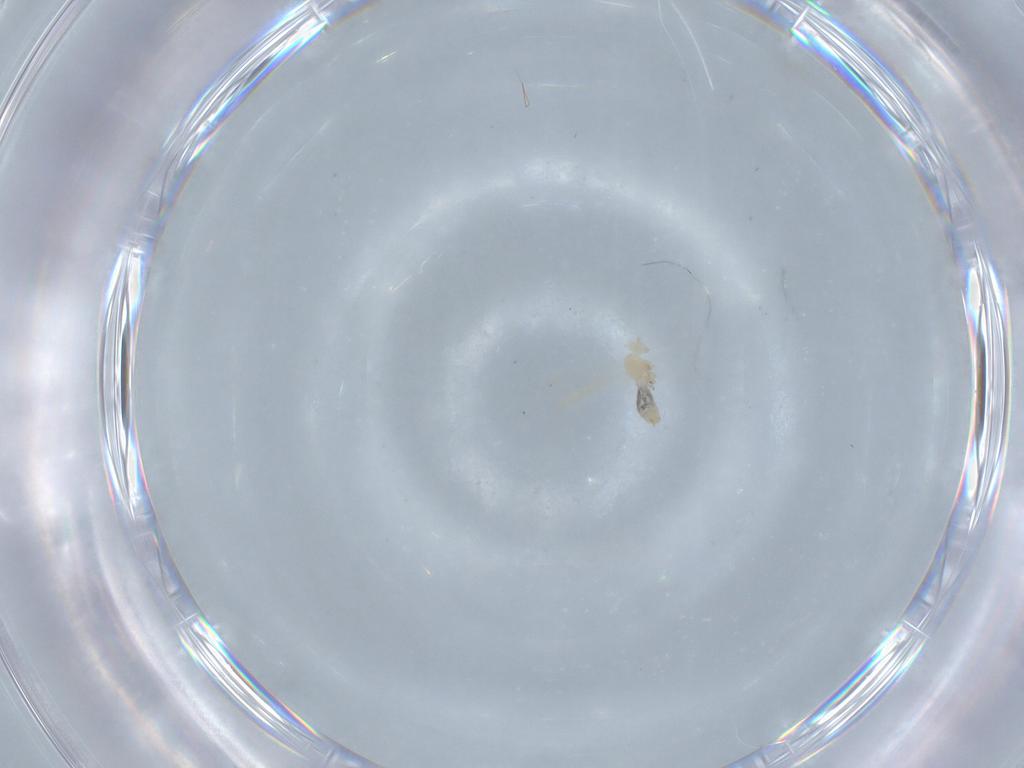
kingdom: Animalia
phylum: Arthropoda
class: Insecta
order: Diptera
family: Cecidomyiidae
